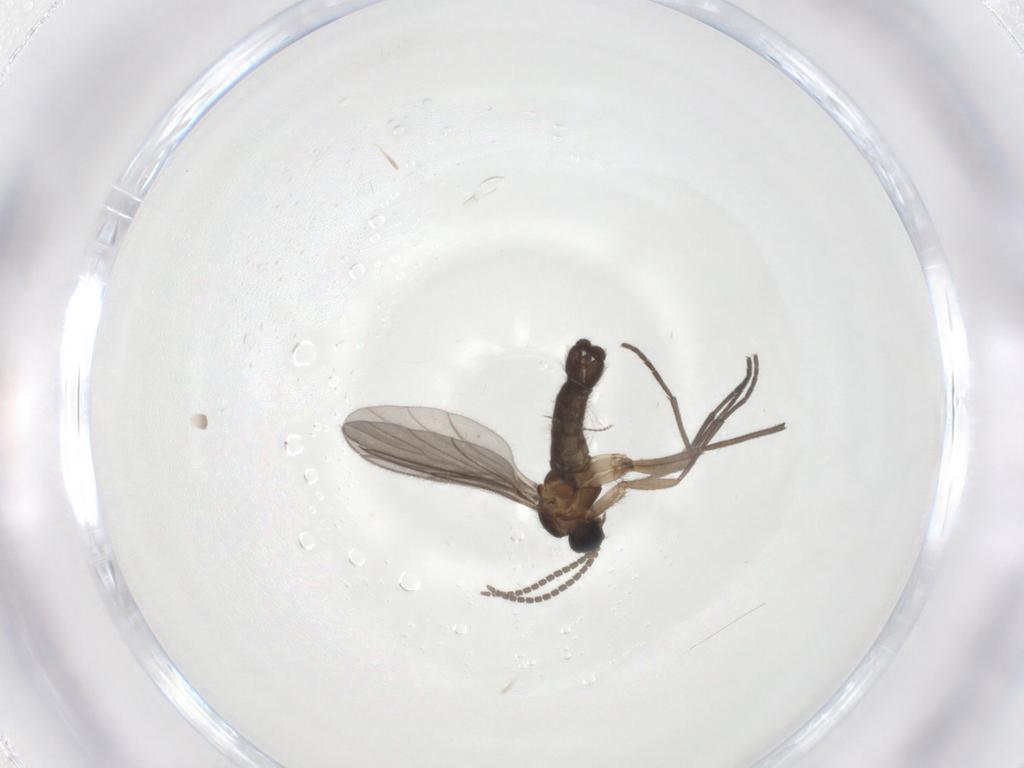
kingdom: Animalia
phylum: Arthropoda
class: Insecta
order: Diptera
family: Sciaridae
